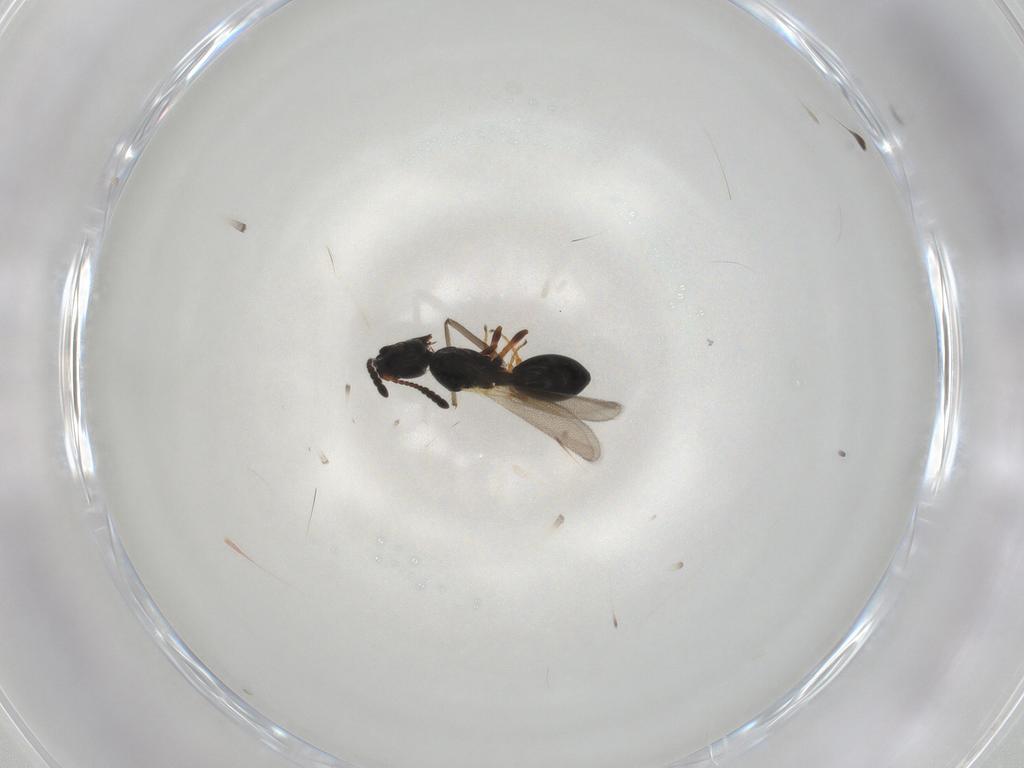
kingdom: Animalia
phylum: Arthropoda
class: Insecta
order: Hymenoptera
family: Diapriidae
